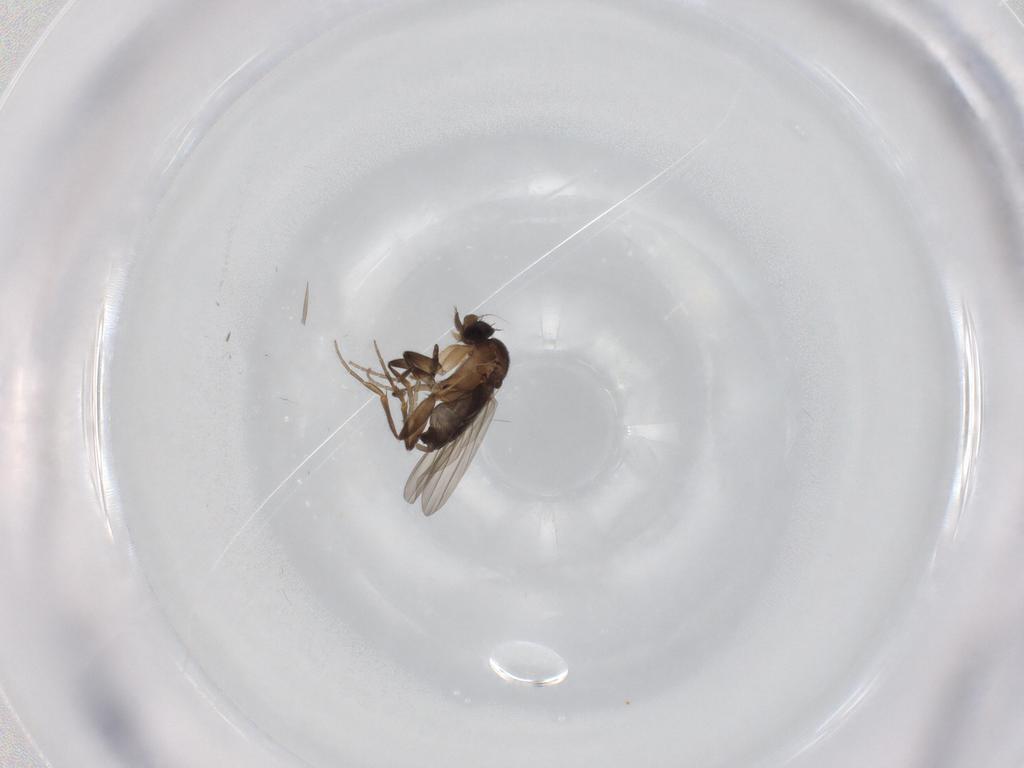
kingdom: Animalia
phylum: Arthropoda
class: Insecta
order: Diptera
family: Phoridae
